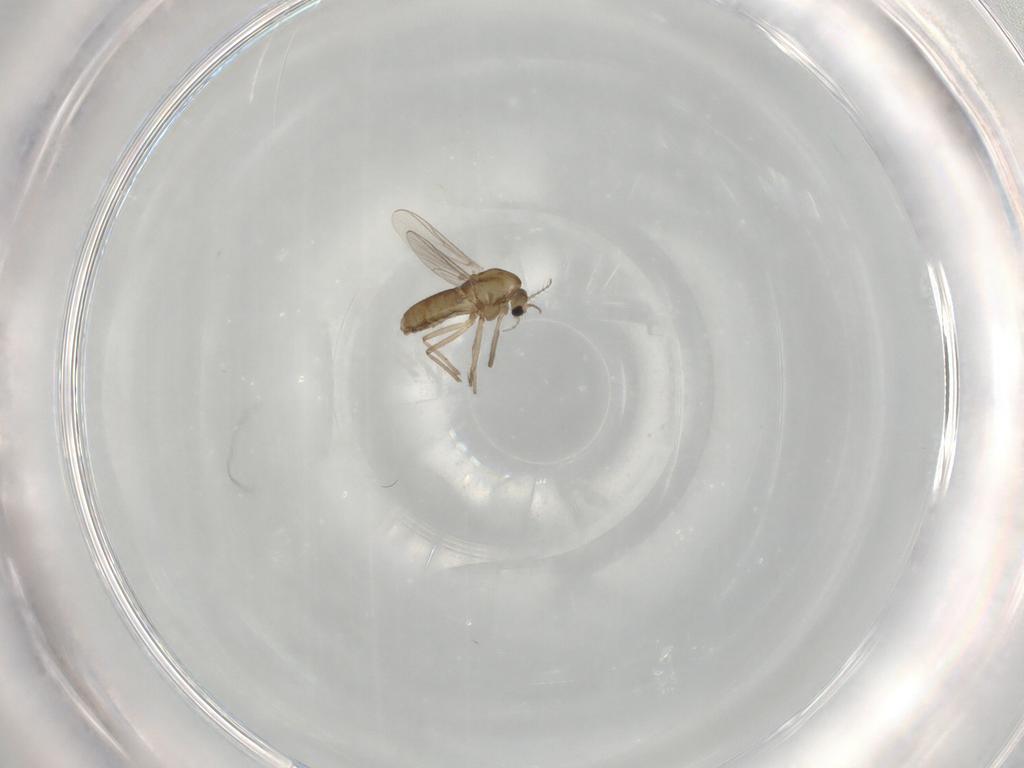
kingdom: Animalia
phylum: Arthropoda
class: Insecta
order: Diptera
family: Chironomidae
